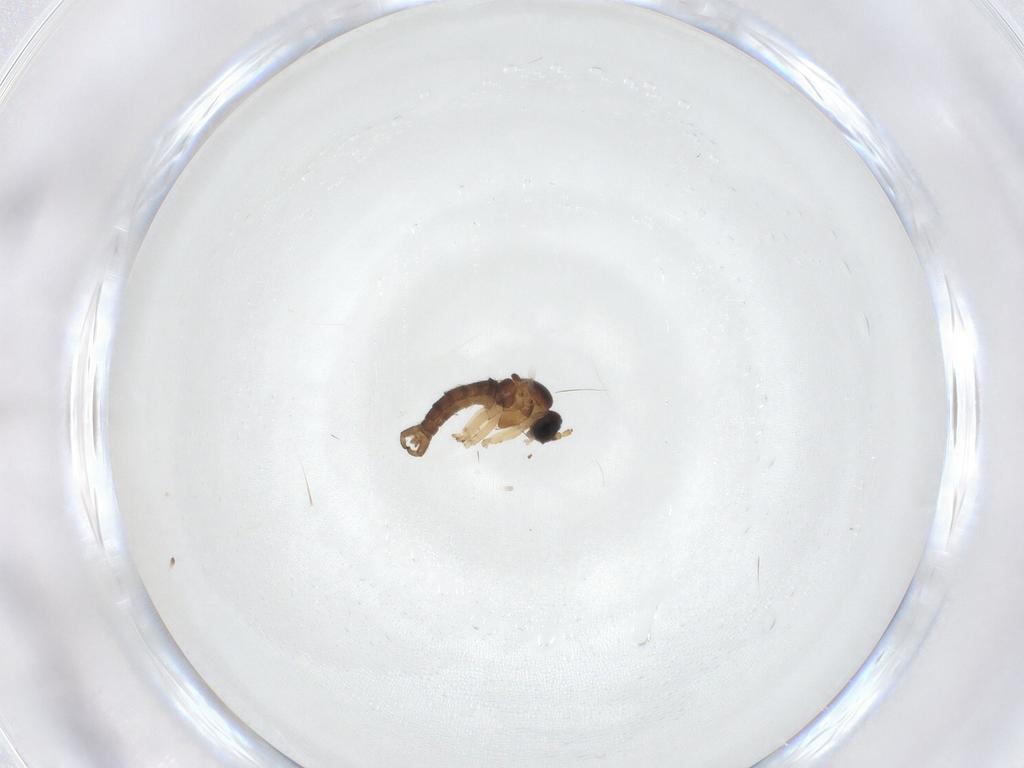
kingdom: Animalia
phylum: Arthropoda
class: Insecta
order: Diptera
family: Sciaridae
